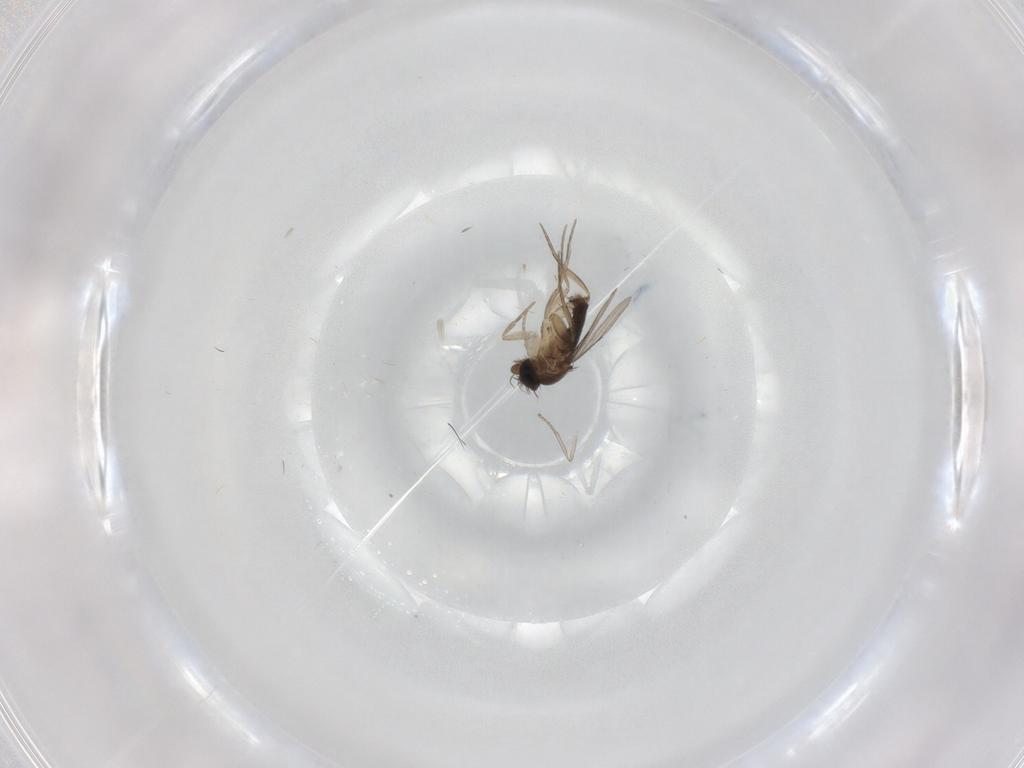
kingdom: Animalia
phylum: Arthropoda
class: Insecta
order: Diptera
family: Phoridae
